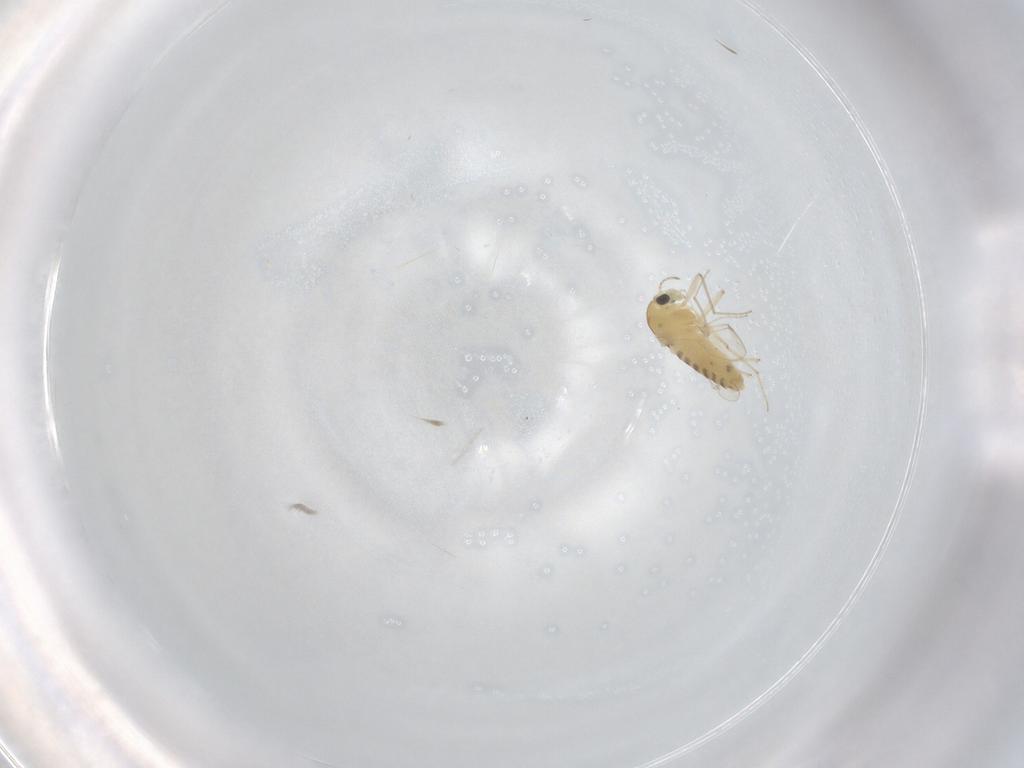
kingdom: Animalia
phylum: Arthropoda
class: Insecta
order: Diptera
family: Chironomidae
